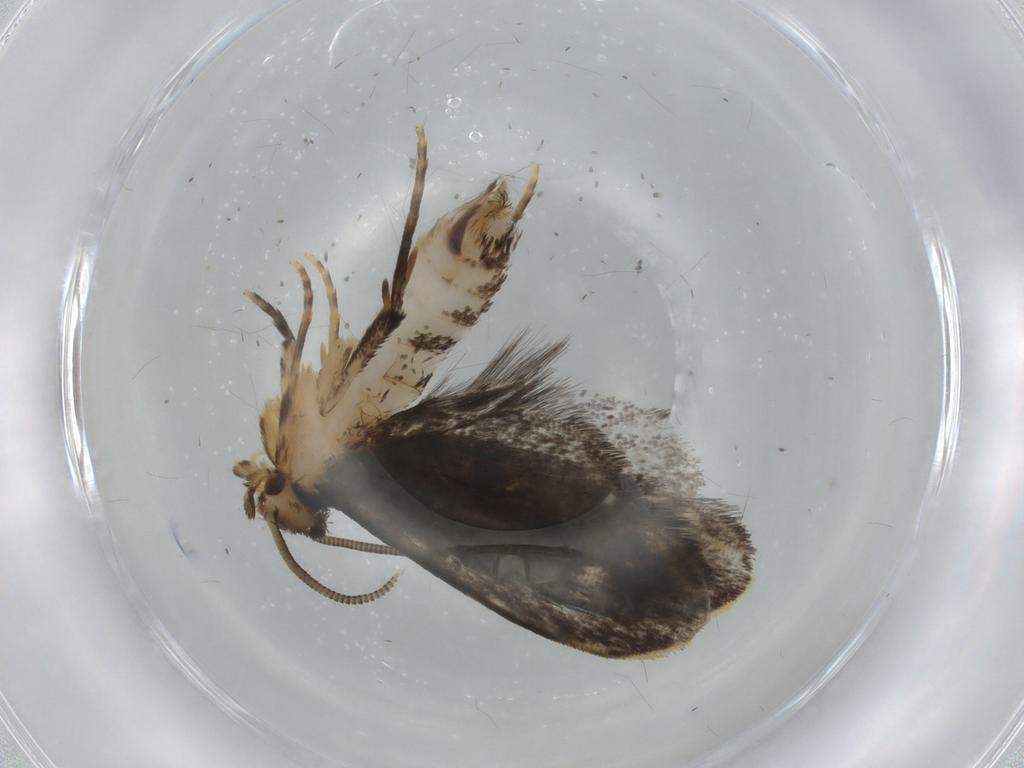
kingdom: Animalia
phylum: Arthropoda
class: Insecta
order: Lepidoptera
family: Dryadaulidae
